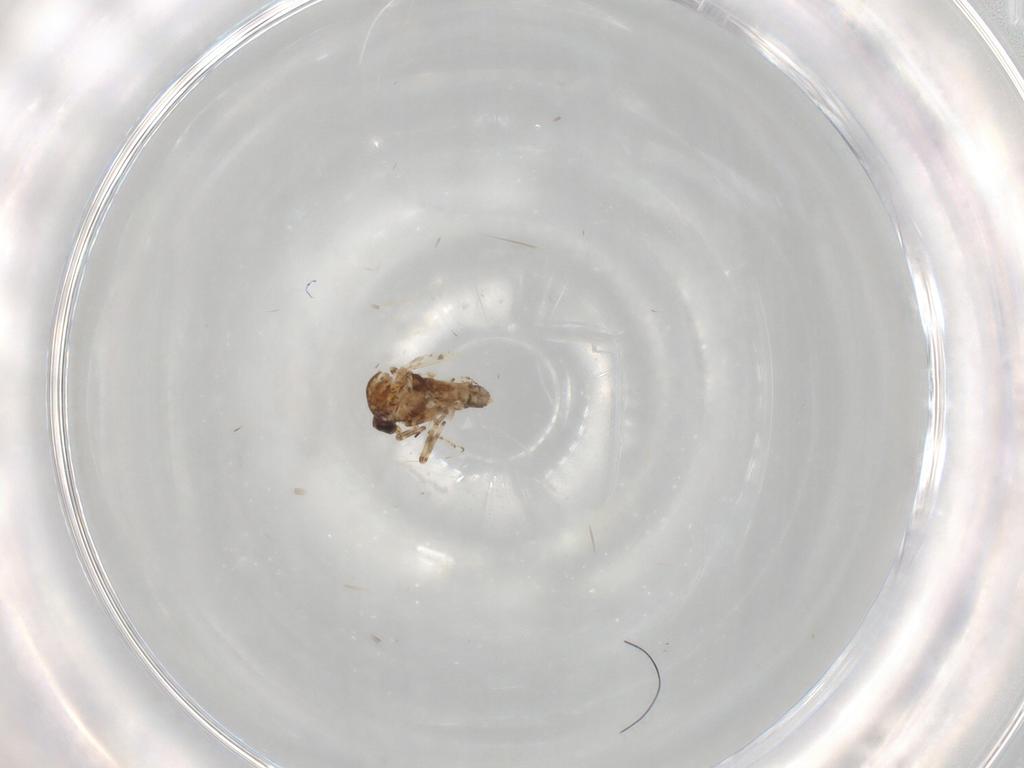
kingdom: Animalia
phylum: Arthropoda
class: Insecta
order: Diptera
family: Ceratopogonidae
